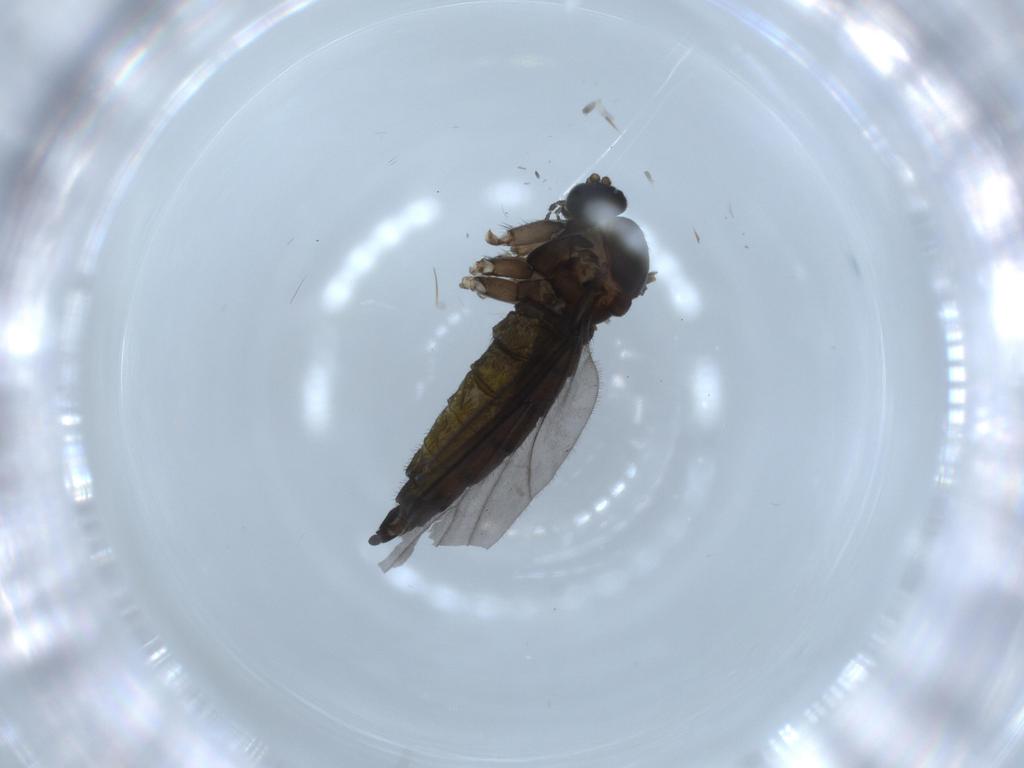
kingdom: Animalia
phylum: Arthropoda
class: Insecta
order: Diptera
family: Sciaridae
